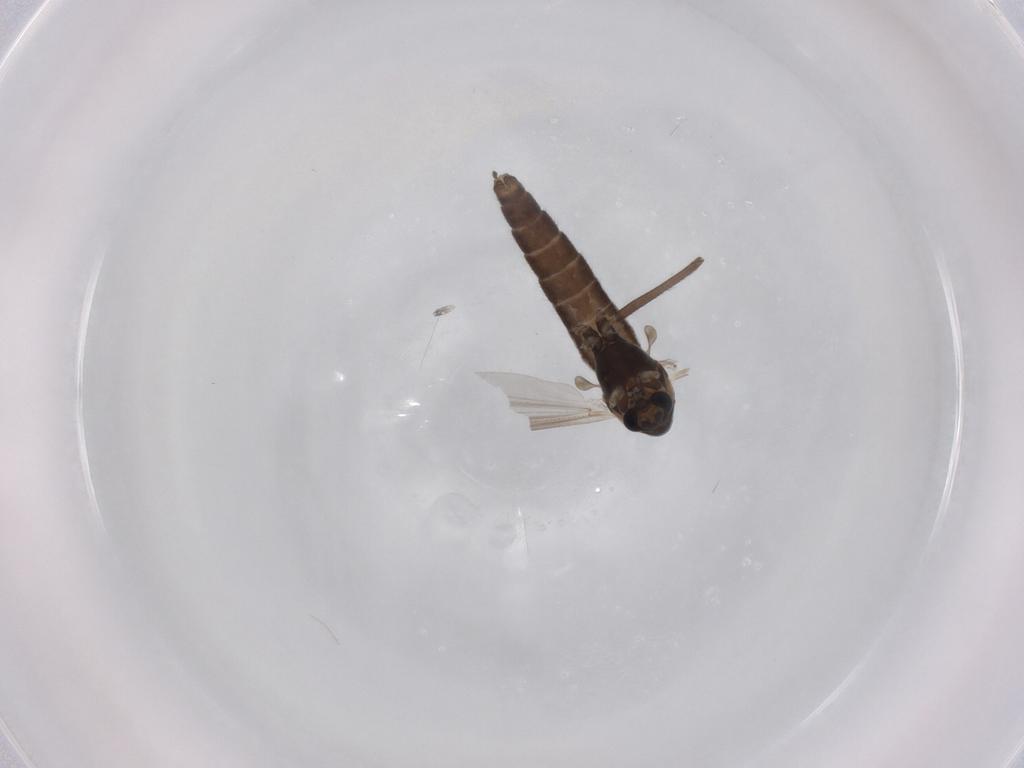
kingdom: Animalia
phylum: Arthropoda
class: Insecta
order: Diptera
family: Chironomidae
